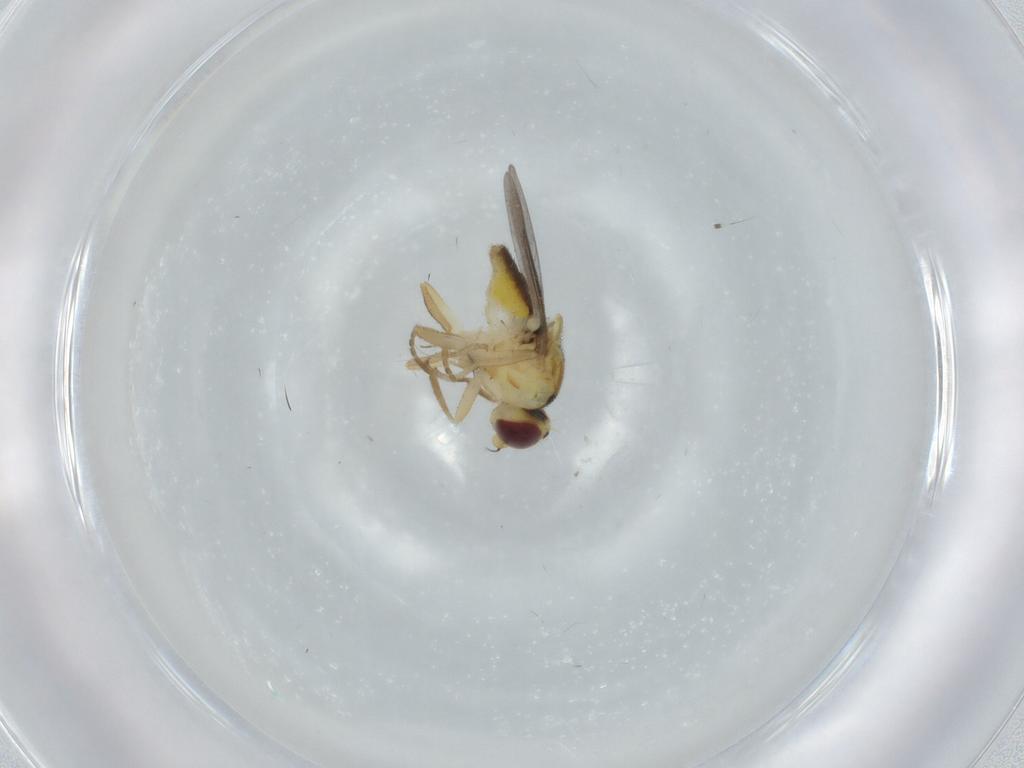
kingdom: Animalia
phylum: Arthropoda
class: Insecta
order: Diptera
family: Chloropidae
